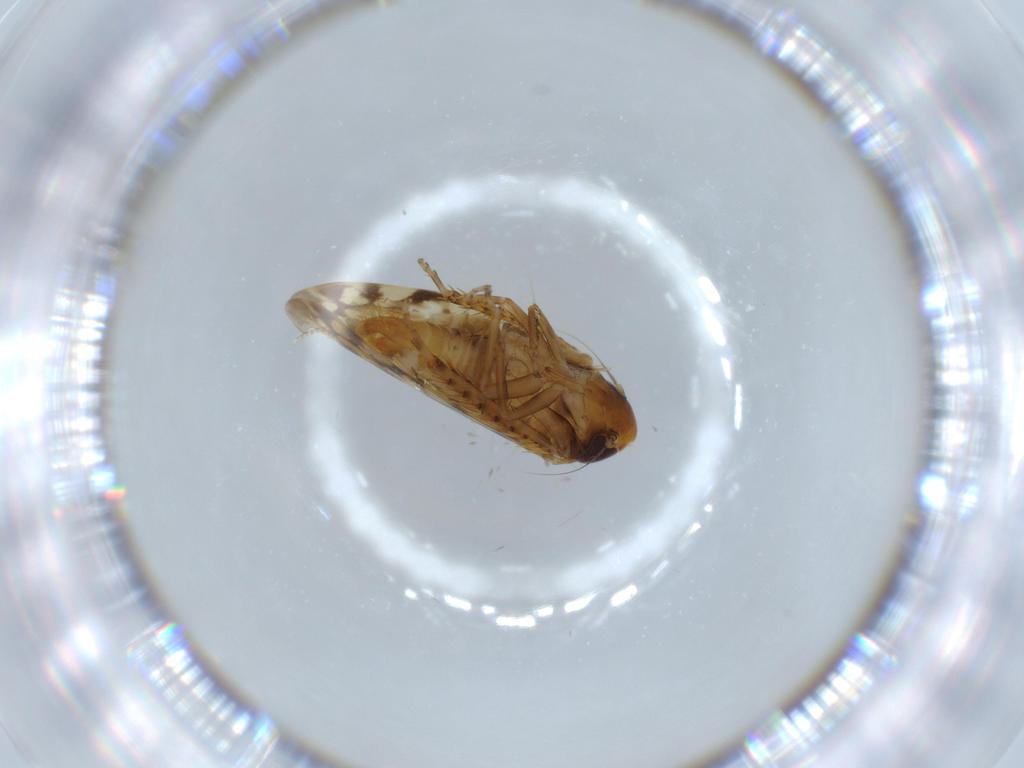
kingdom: Animalia
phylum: Arthropoda
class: Insecta
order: Hemiptera
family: Cicadellidae
